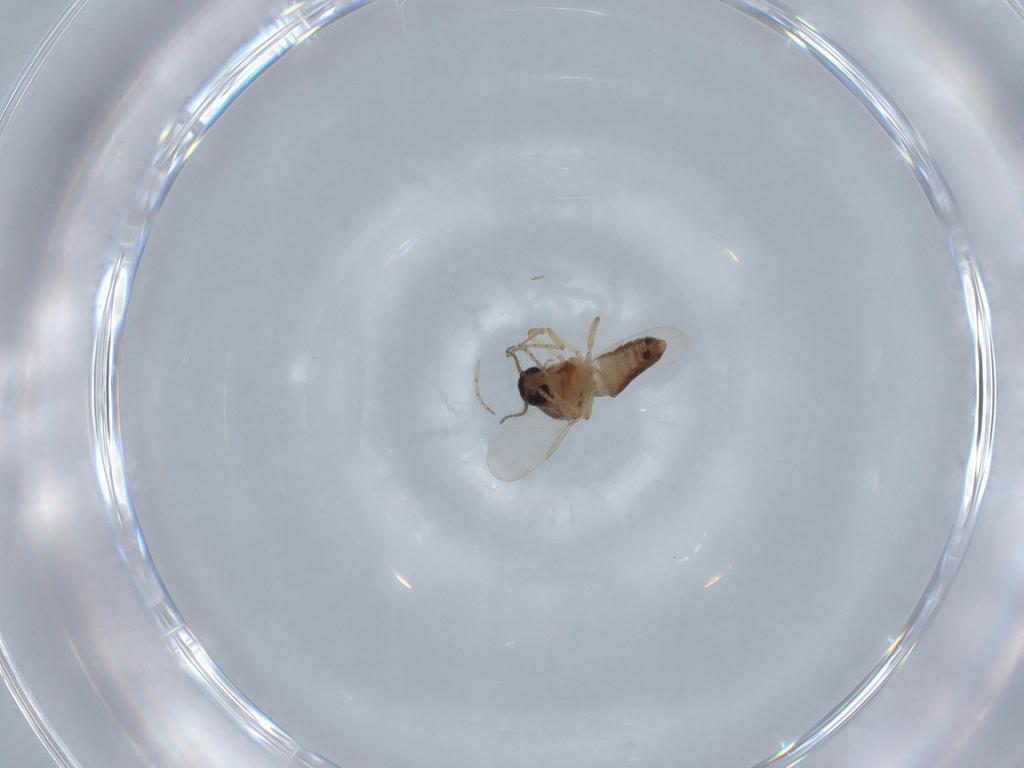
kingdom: Animalia
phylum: Arthropoda
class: Insecta
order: Diptera
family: Ceratopogonidae
